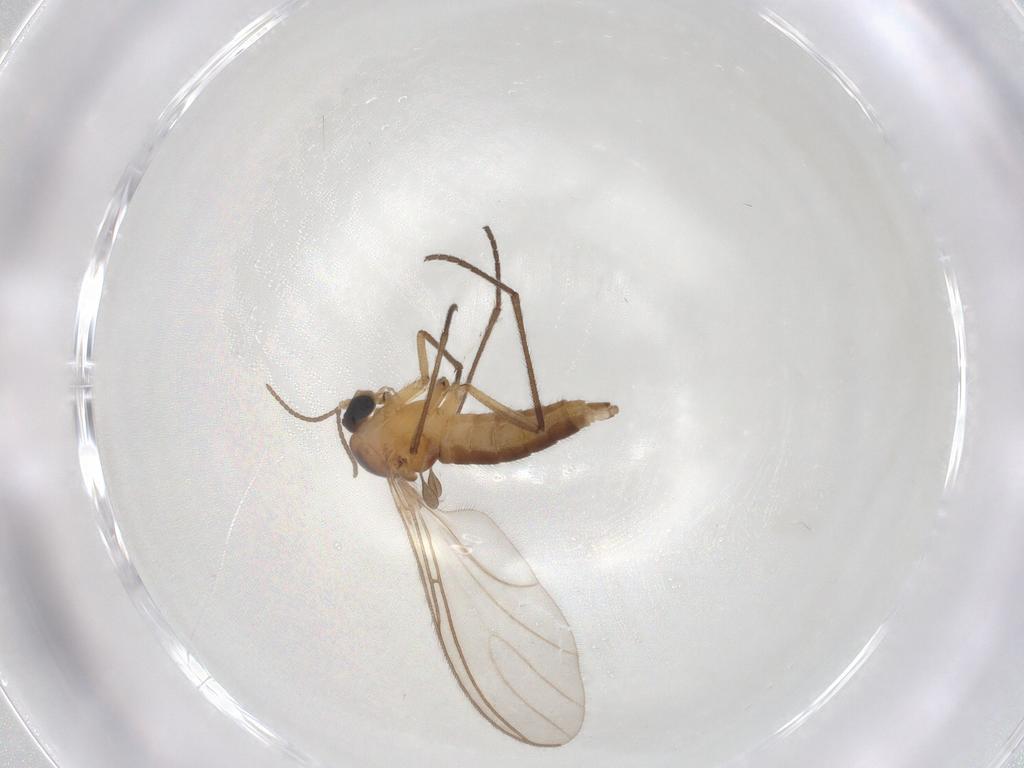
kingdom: Animalia
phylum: Arthropoda
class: Insecta
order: Diptera
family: Sciaridae
